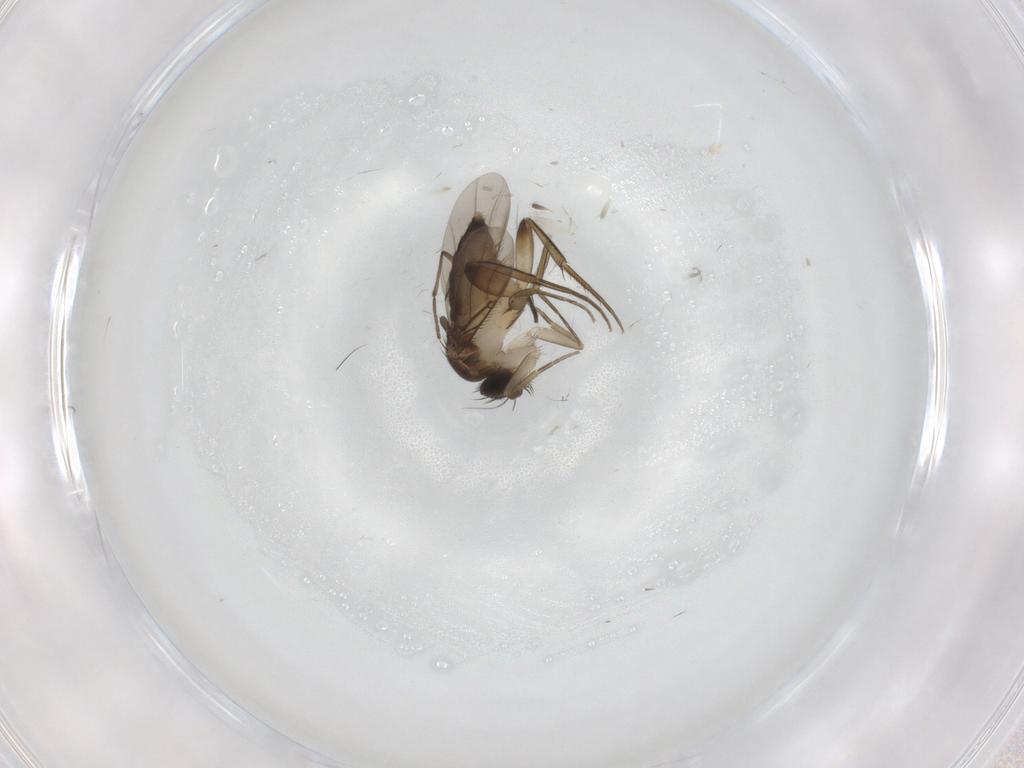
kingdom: Animalia
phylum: Arthropoda
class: Insecta
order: Diptera
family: Phoridae
